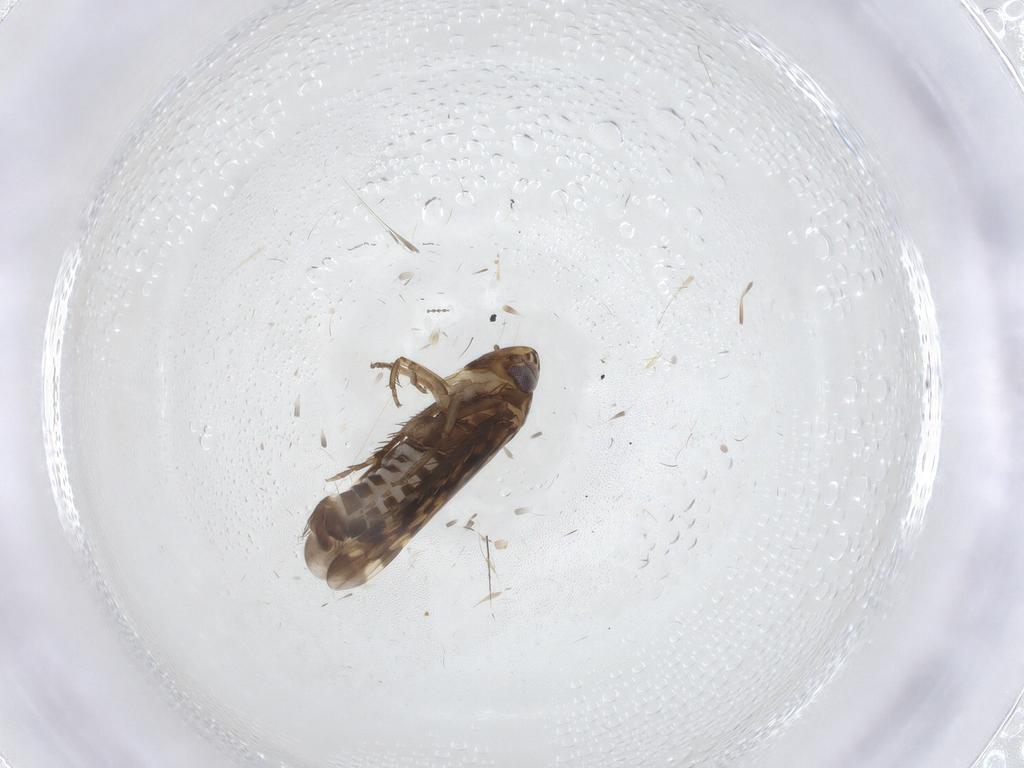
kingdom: Animalia
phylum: Arthropoda
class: Insecta
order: Hemiptera
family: Cicadellidae
